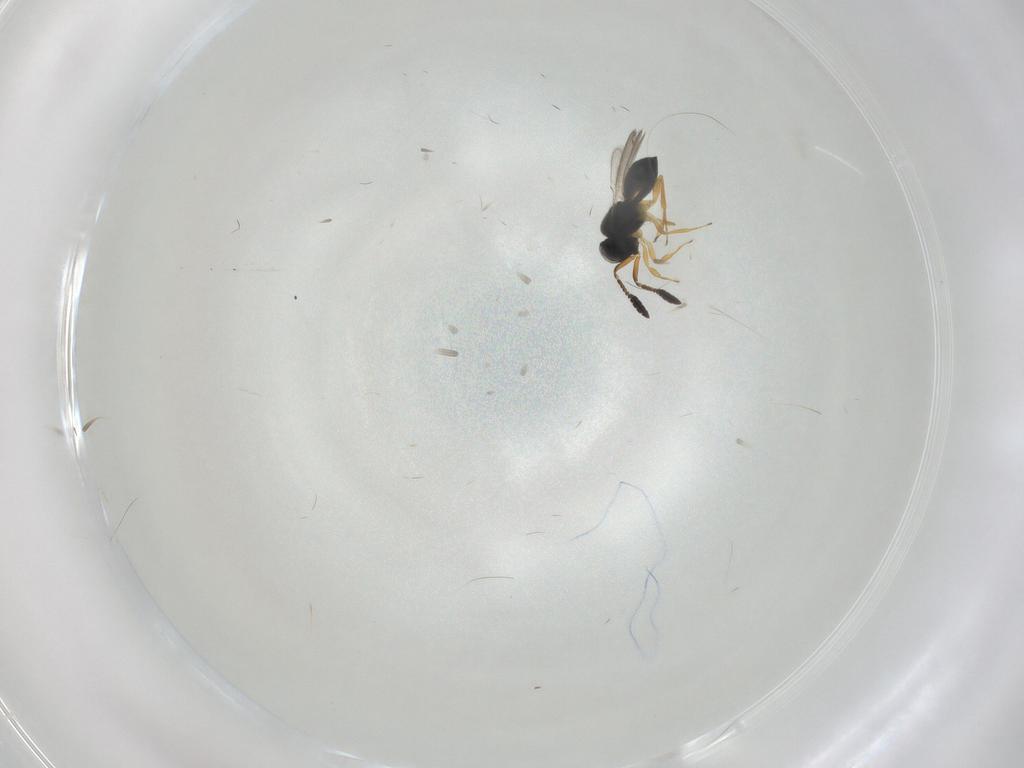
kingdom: Animalia
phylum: Arthropoda
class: Insecta
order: Hymenoptera
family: Scelionidae
